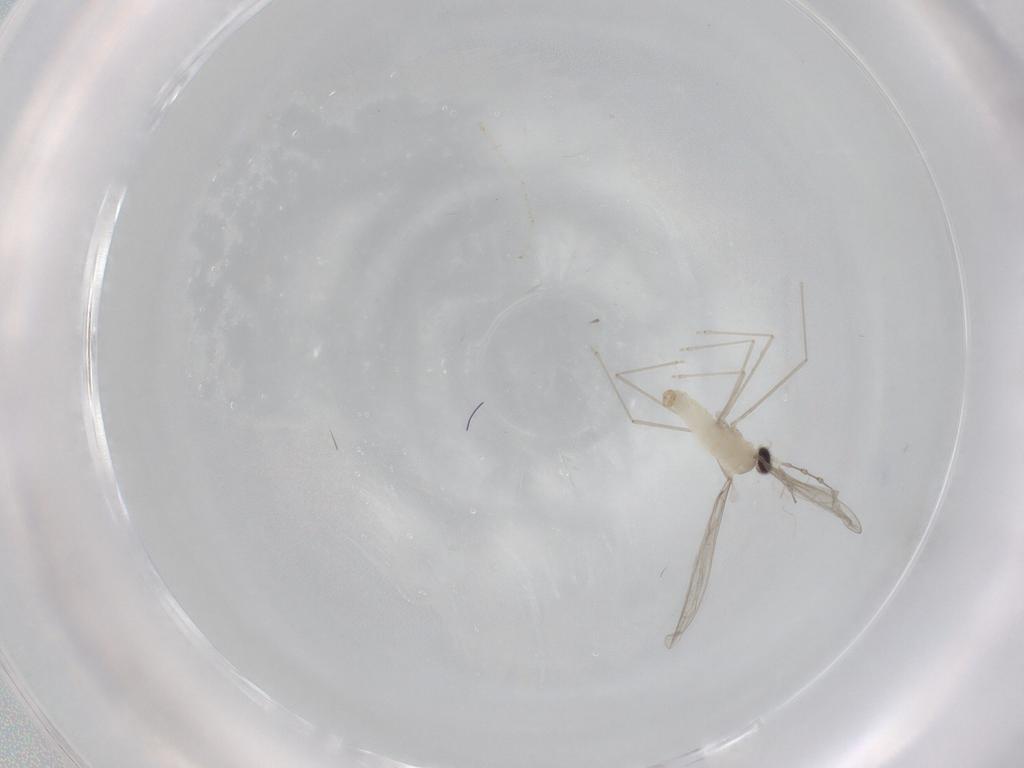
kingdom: Animalia
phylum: Arthropoda
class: Insecta
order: Diptera
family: Cecidomyiidae
